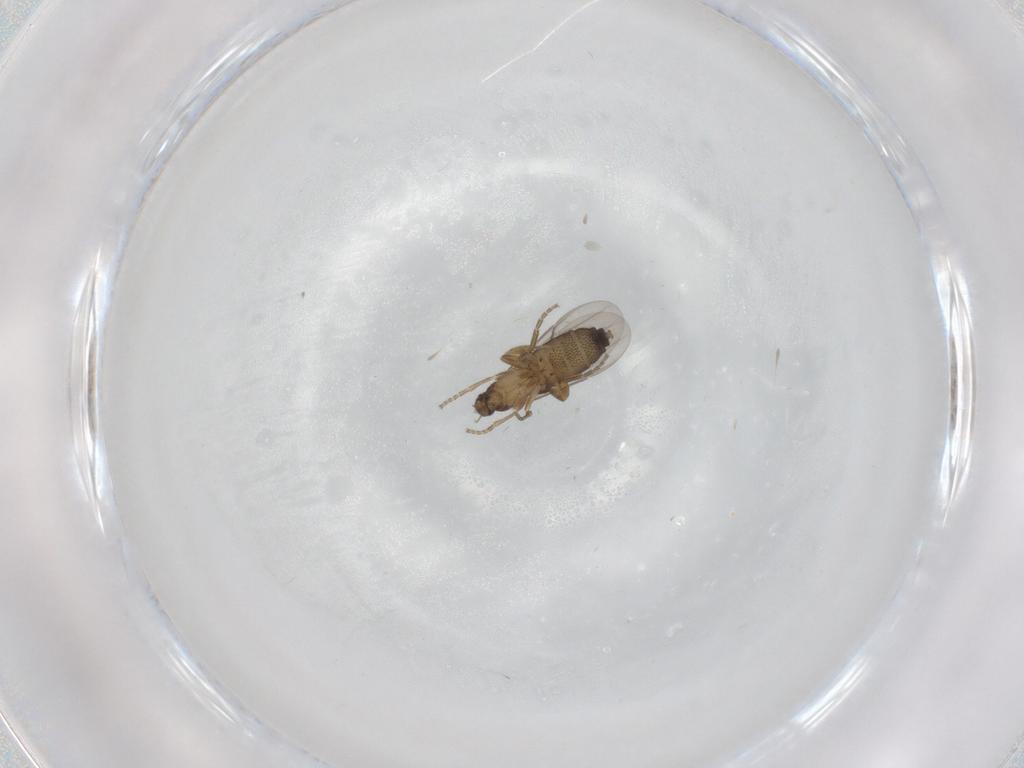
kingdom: Animalia
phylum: Arthropoda
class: Insecta
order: Diptera
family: Phoridae
